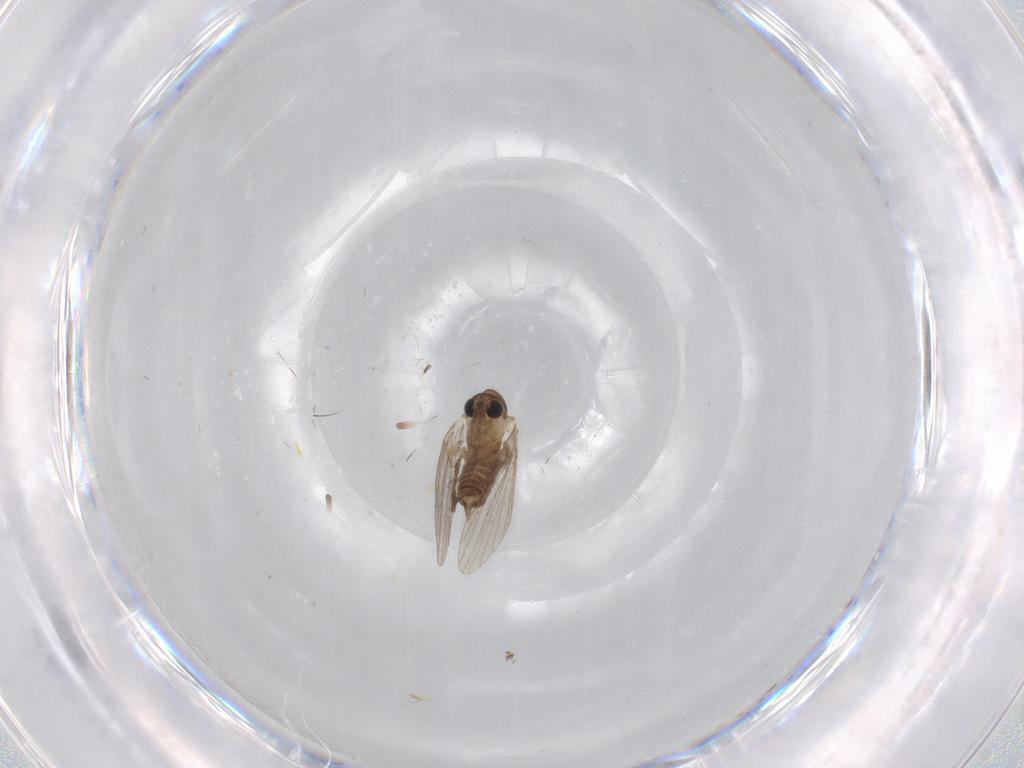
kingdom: Animalia
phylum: Arthropoda
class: Insecta
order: Diptera
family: Hybotidae
